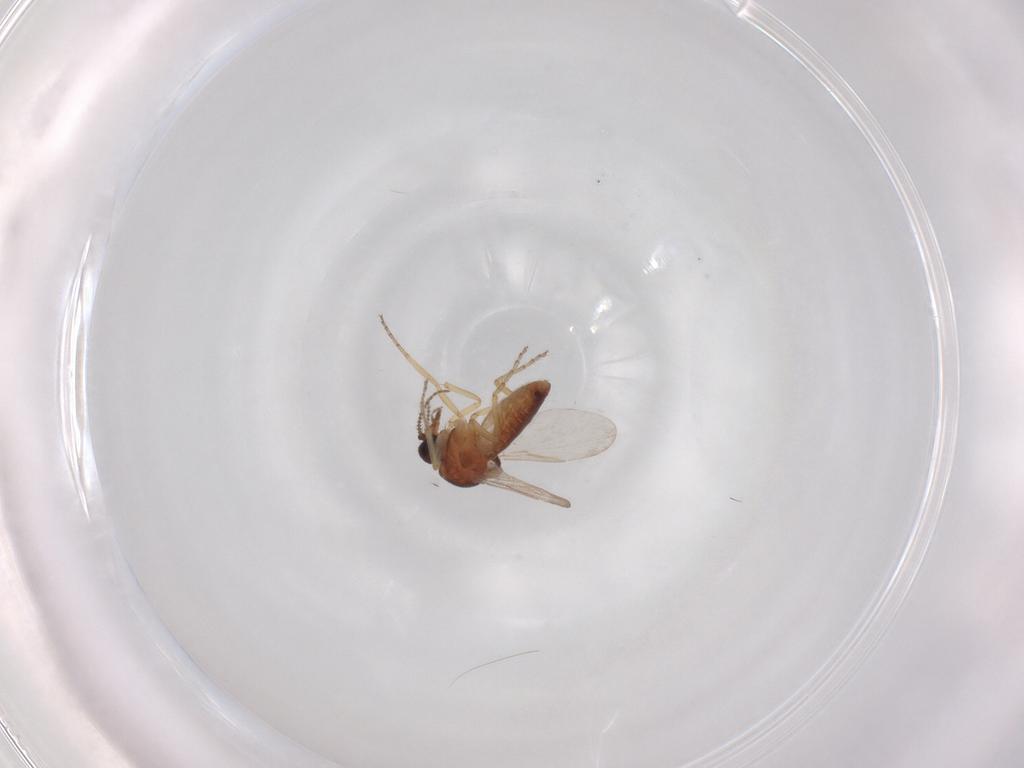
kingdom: Animalia
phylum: Arthropoda
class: Insecta
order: Diptera
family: Ceratopogonidae
